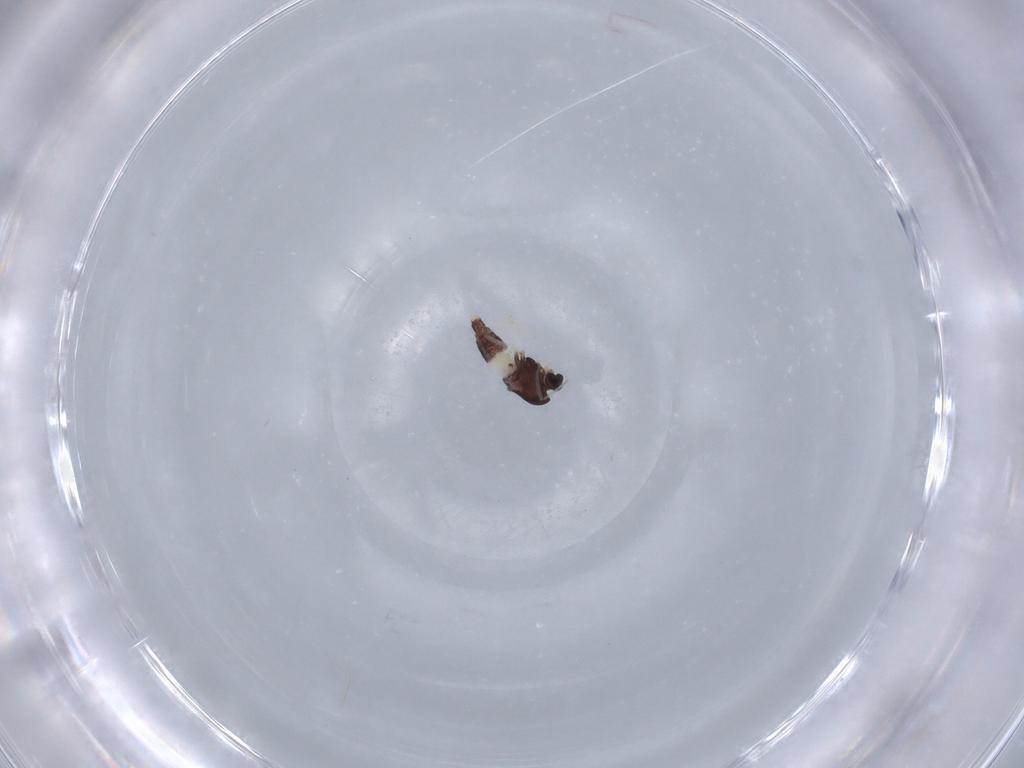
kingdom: Animalia
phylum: Arthropoda
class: Insecta
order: Diptera
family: Chironomidae
